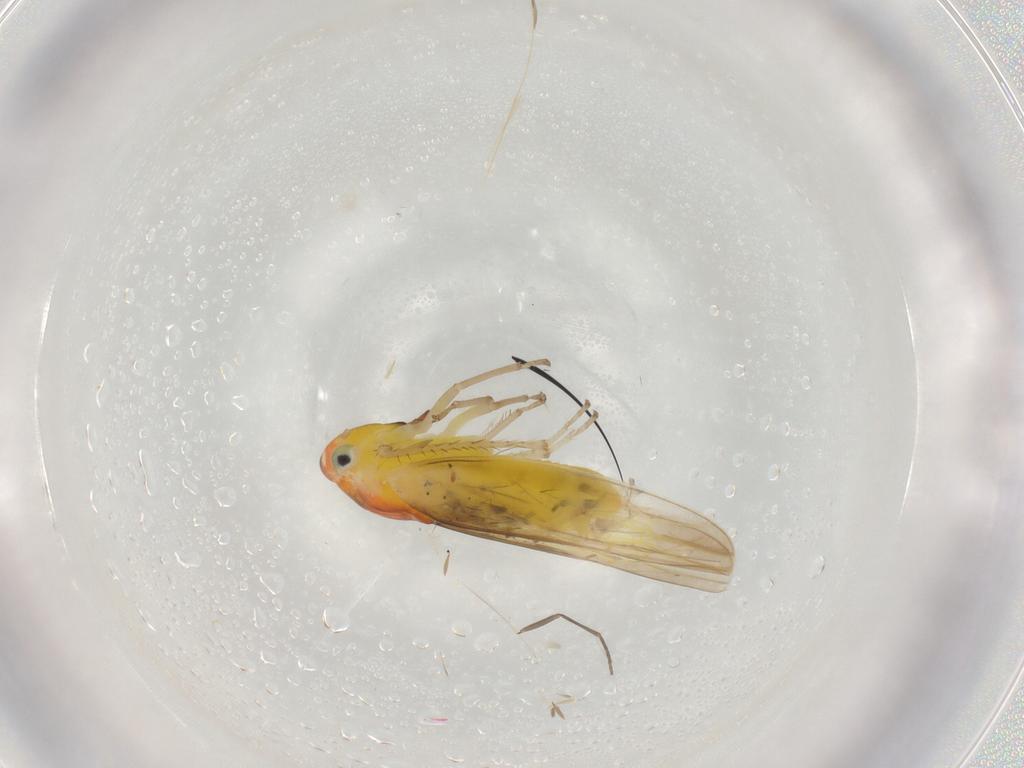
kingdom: Animalia
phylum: Arthropoda
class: Insecta
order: Hemiptera
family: Cicadellidae
